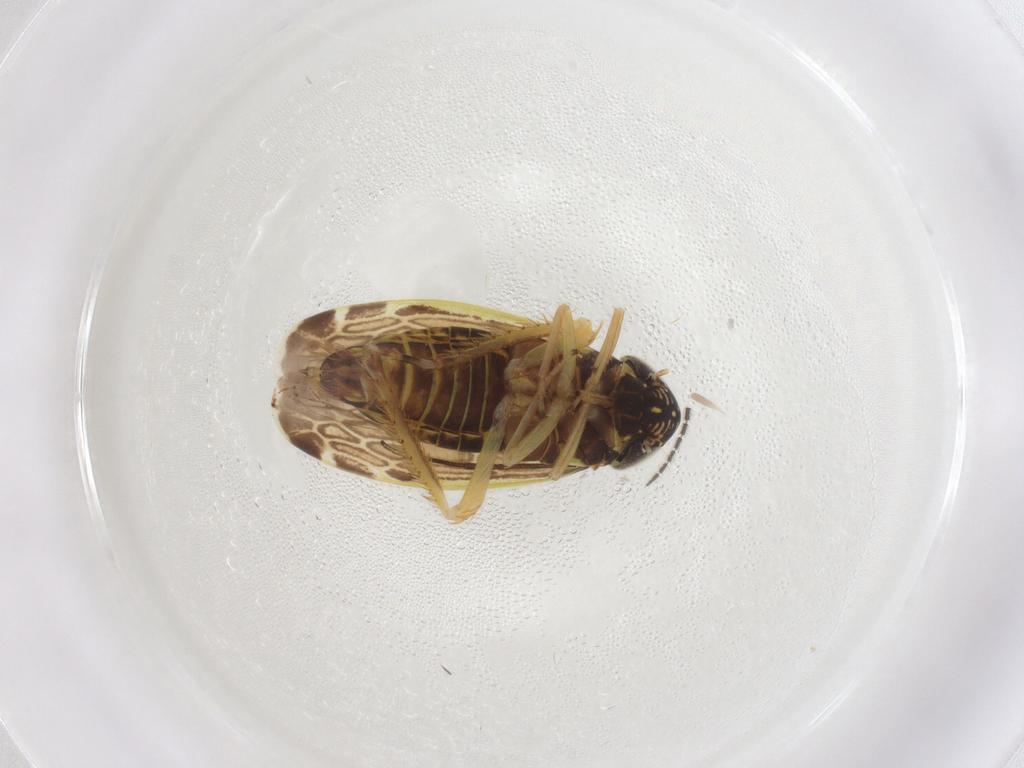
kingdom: Animalia
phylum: Arthropoda
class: Insecta
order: Hemiptera
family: Cicadellidae
